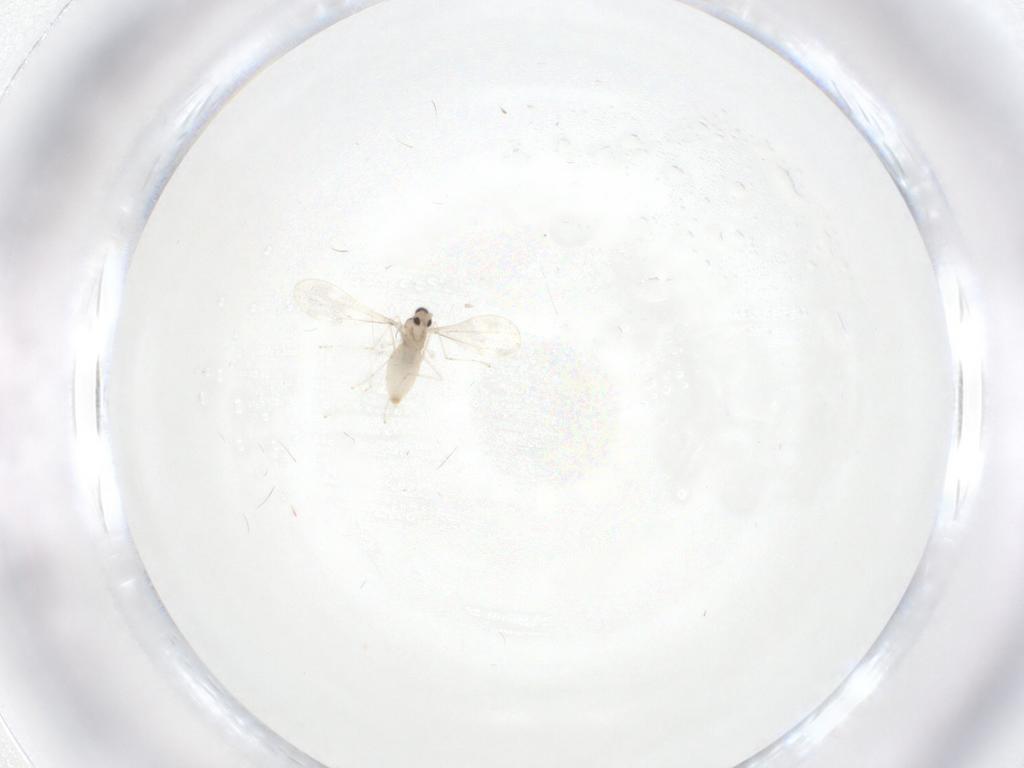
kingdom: Animalia
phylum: Arthropoda
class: Insecta
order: Diptera
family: Cecidomyiidae
